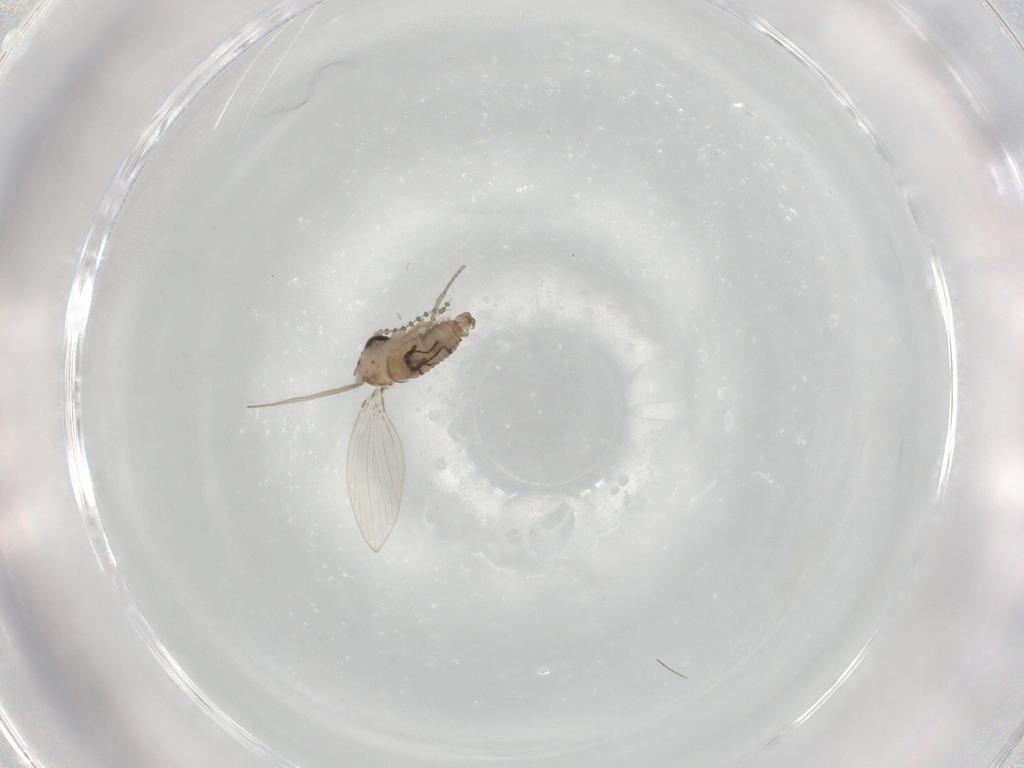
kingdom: Animalia
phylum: Arthropoda
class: Insecta
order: Diptera
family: Psychodidae
